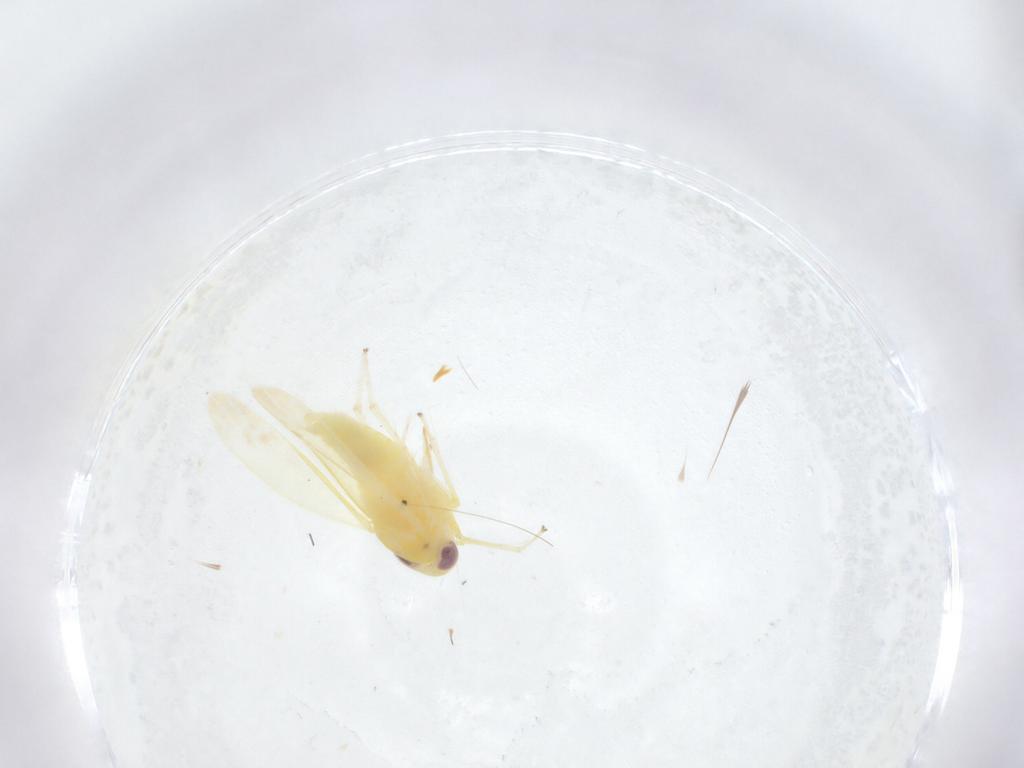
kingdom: Animalia
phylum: Arthropoda
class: Insecta
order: Hemiptera
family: Cicadellidae
